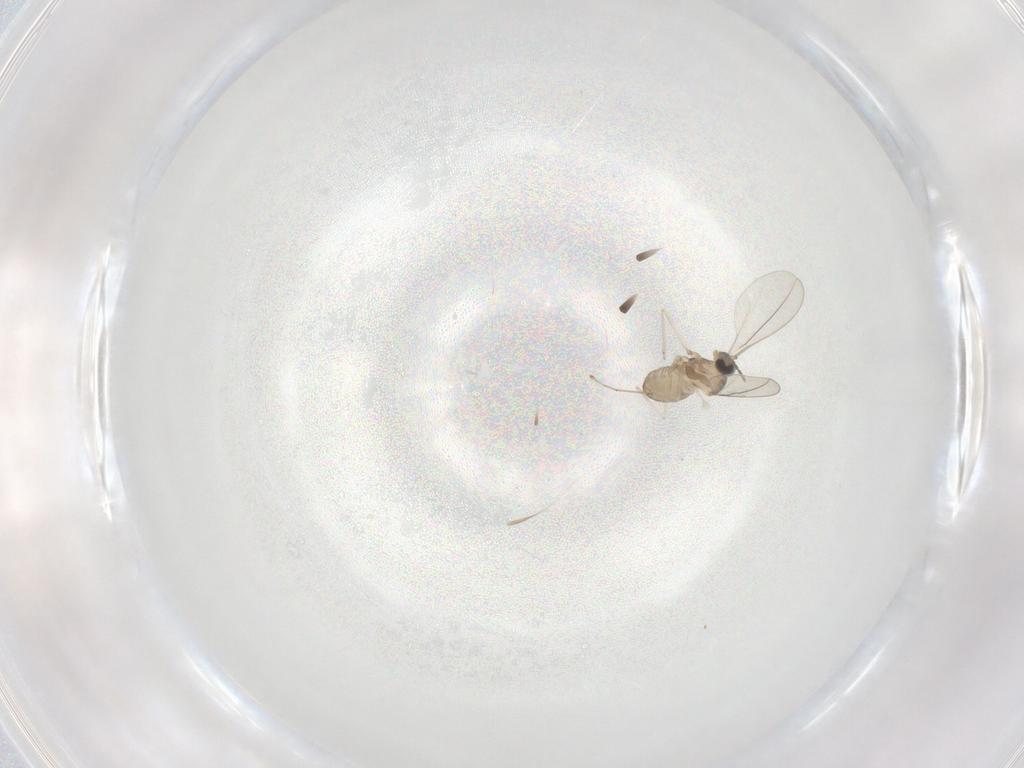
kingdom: Animalia
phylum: Arthropoda
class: Insecta
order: Diptera
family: Cecidomyiidae
